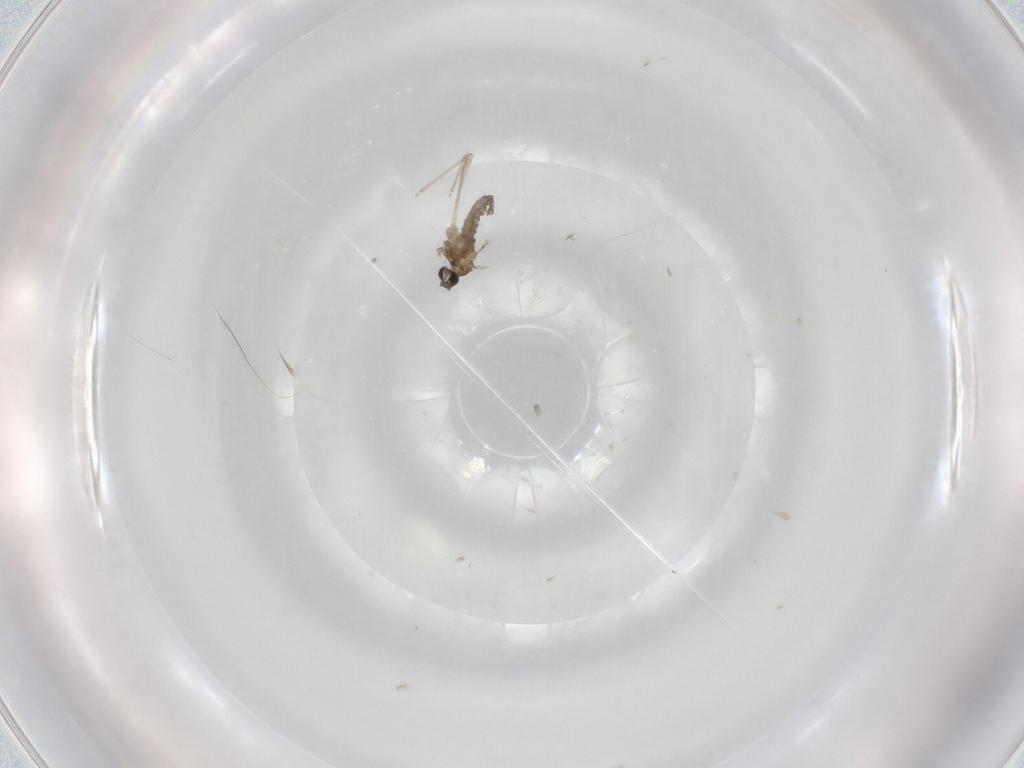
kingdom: Animalia
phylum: Arthropoda
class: Insecta
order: Diptera
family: Cecidomyiidae
